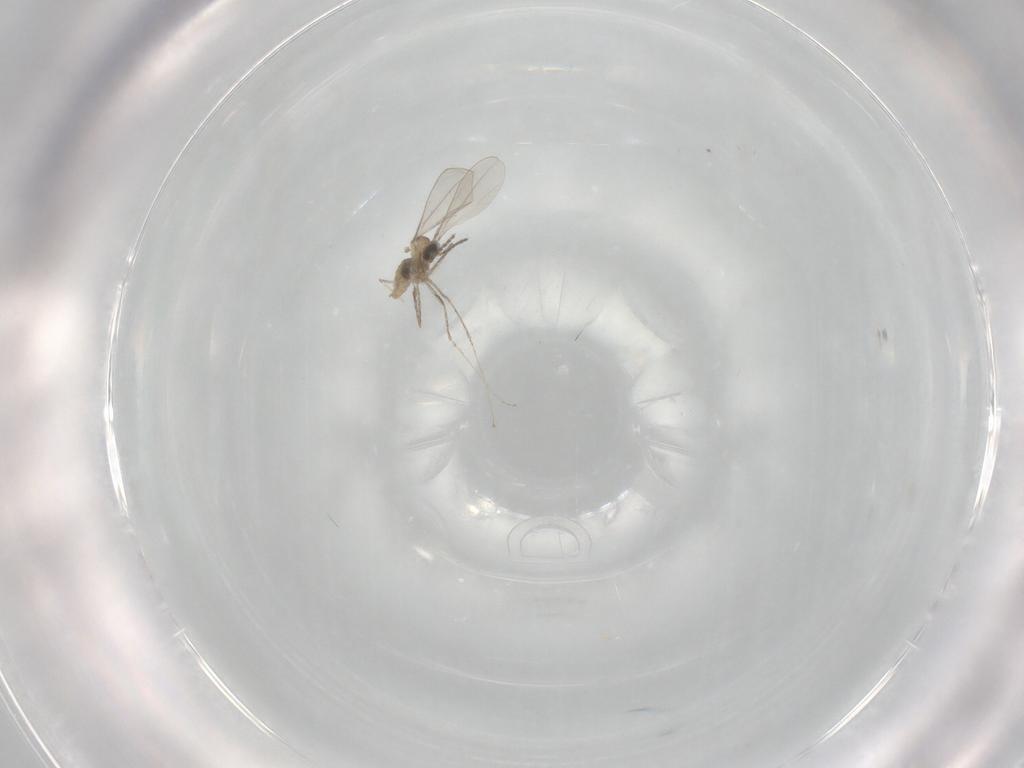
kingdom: Animalia
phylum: Arthropoda
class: Insecta
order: Diptera
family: Cecidomyiidae
